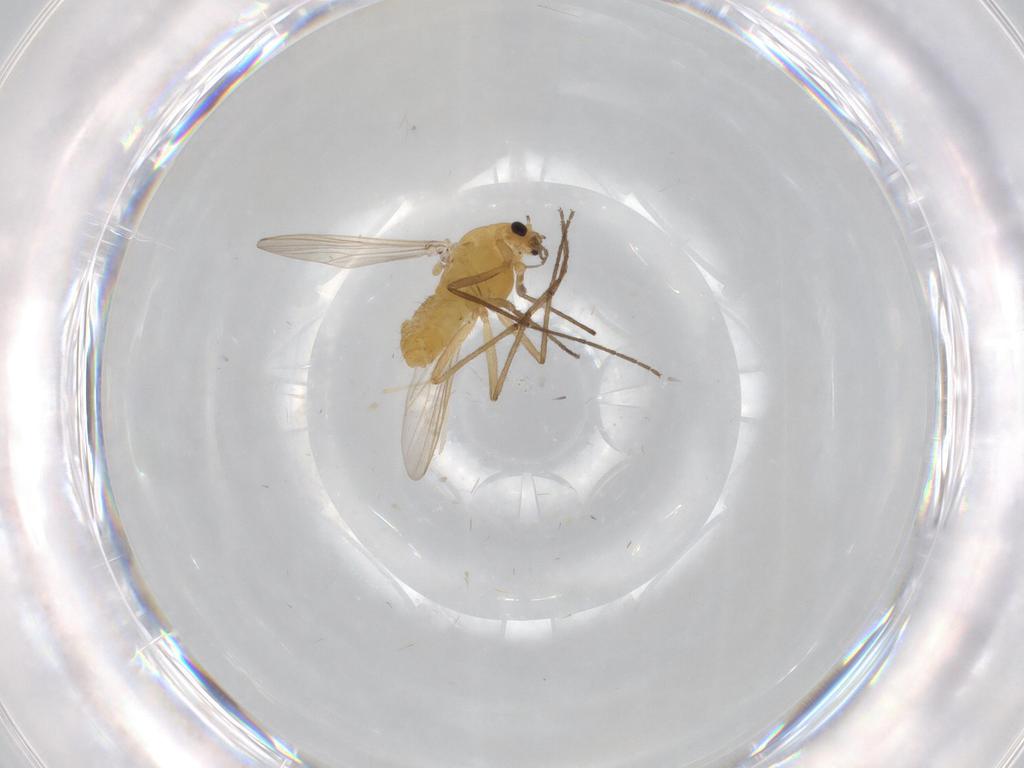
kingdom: Animalia
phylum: Arthropoda
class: Insecta
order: Diptera
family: Chironomidae
